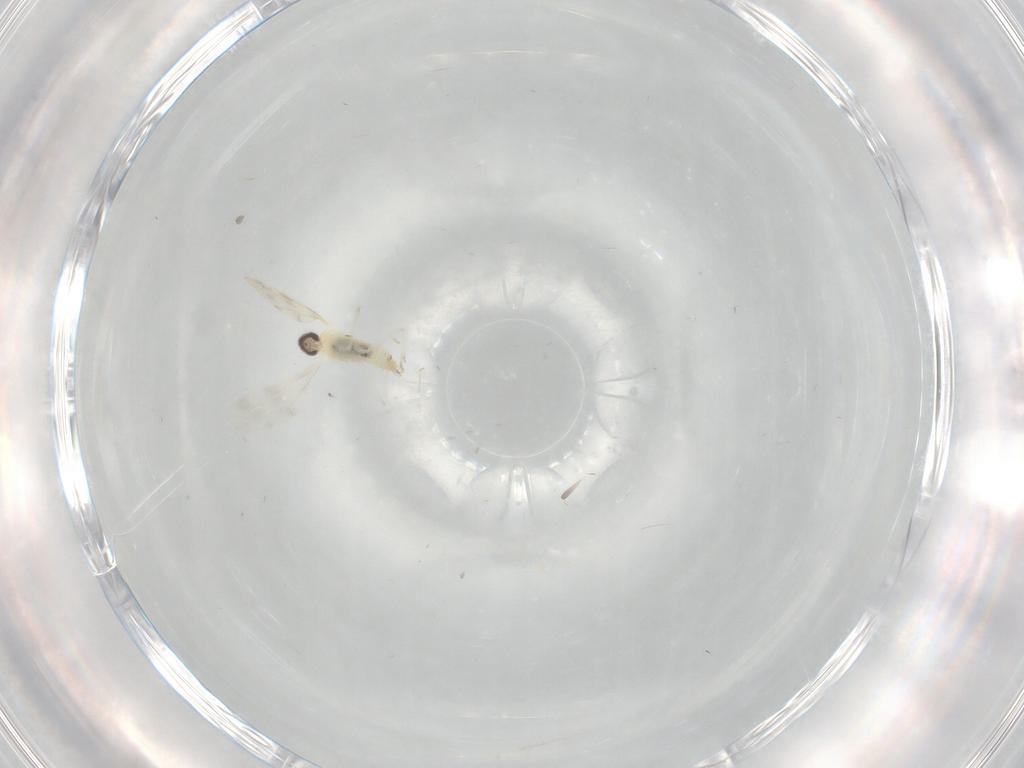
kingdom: Animalia
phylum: Arthropoda
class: Insecta
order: Diptera
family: Cecidomyiidae
